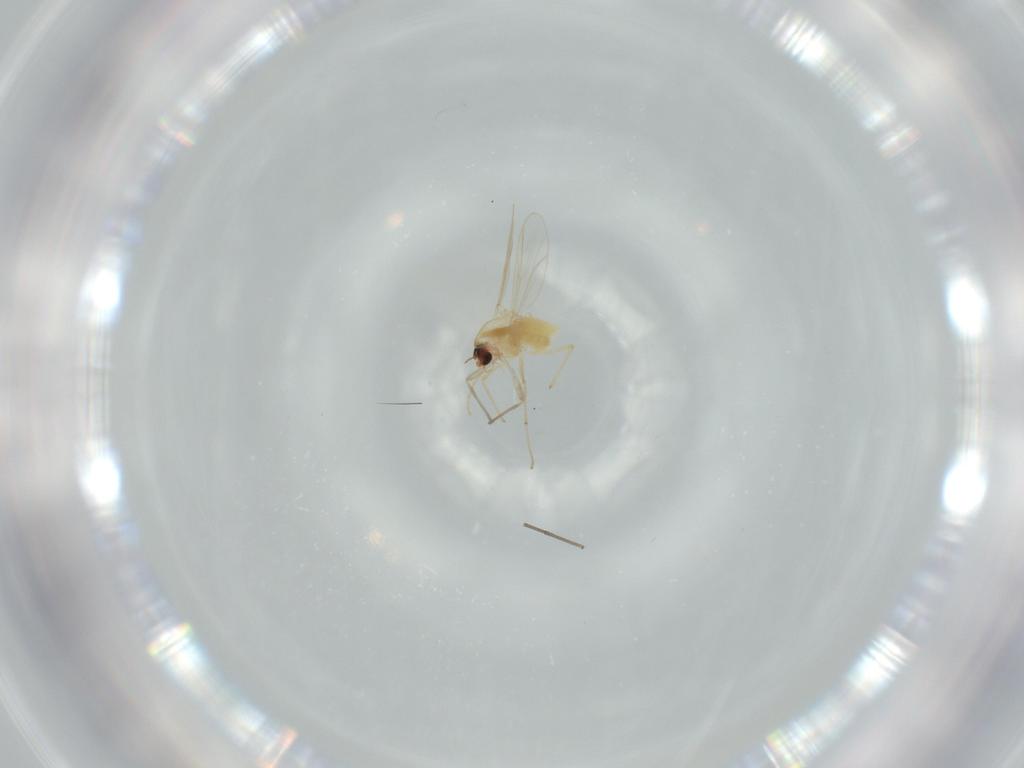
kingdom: Animalia
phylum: Arthropoda
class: Insecta
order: Diptera
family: Chironomidae
